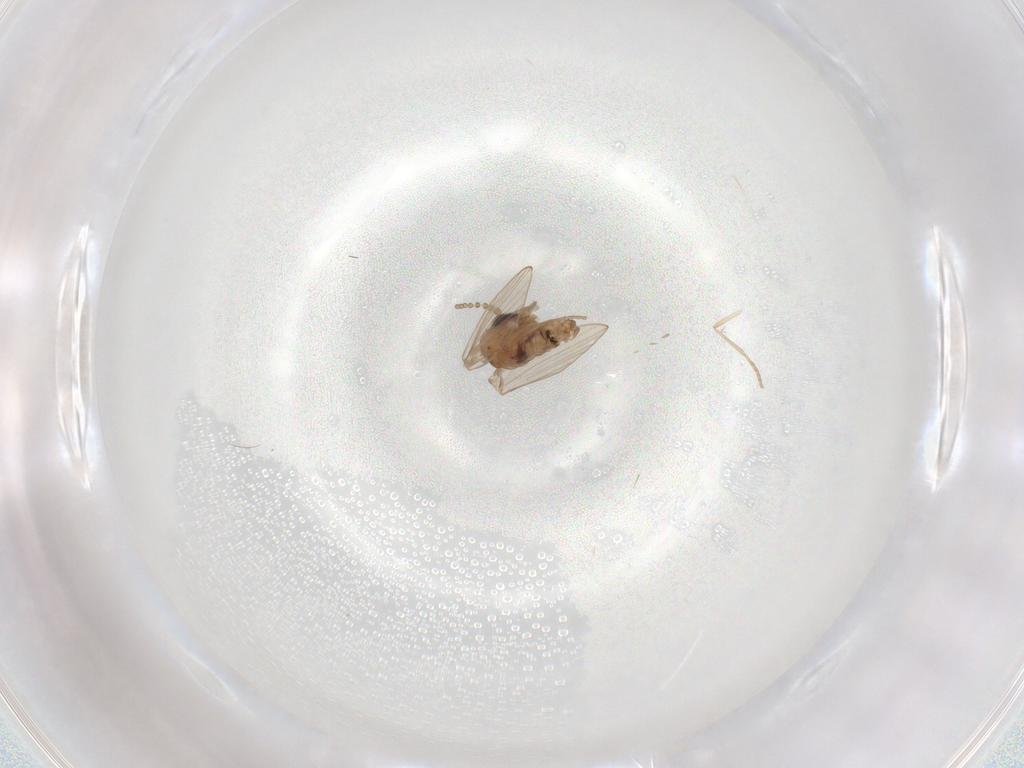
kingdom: Animalia
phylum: Arthropoda
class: Insecta
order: Diptera
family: Psychodidae
